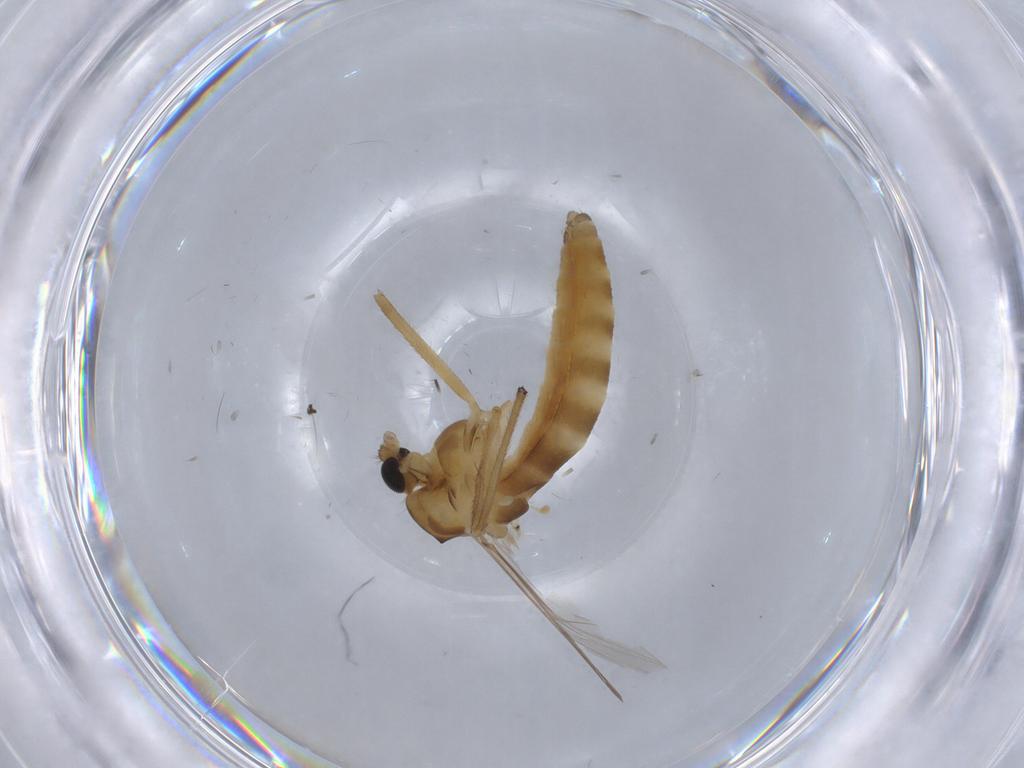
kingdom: Animalia
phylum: Arthropoda
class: Insecta
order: Diptera
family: Chironomidae
